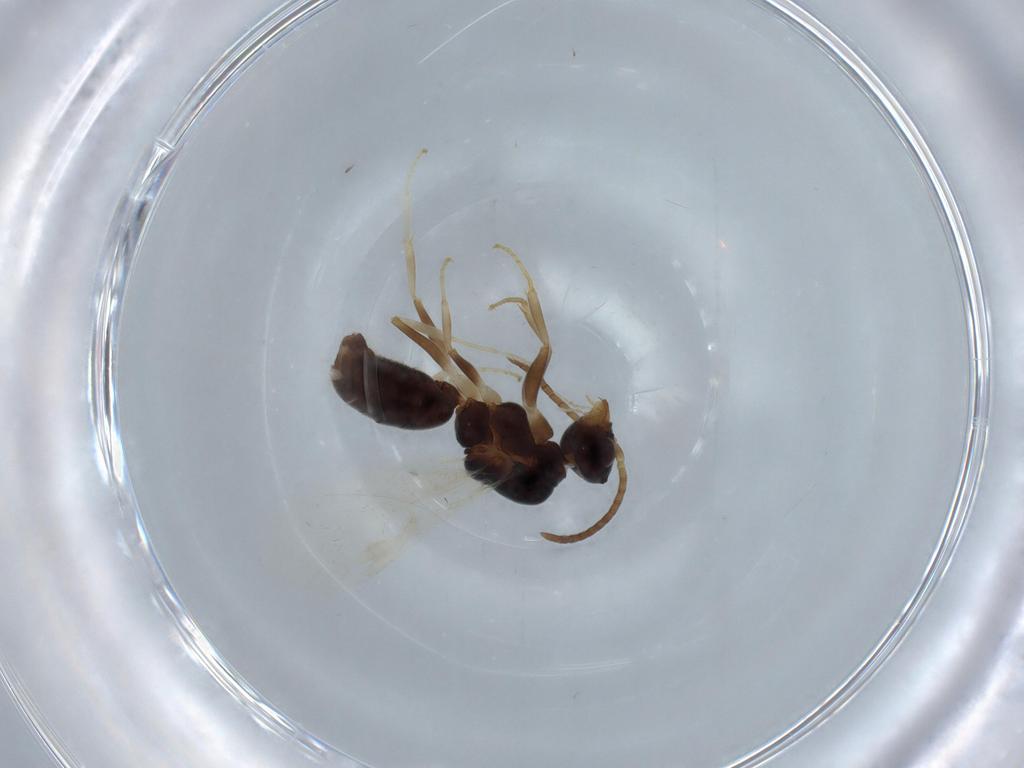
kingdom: Animalia
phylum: Arthropoda
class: Insecta
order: Hymenoptera
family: Formicidae
